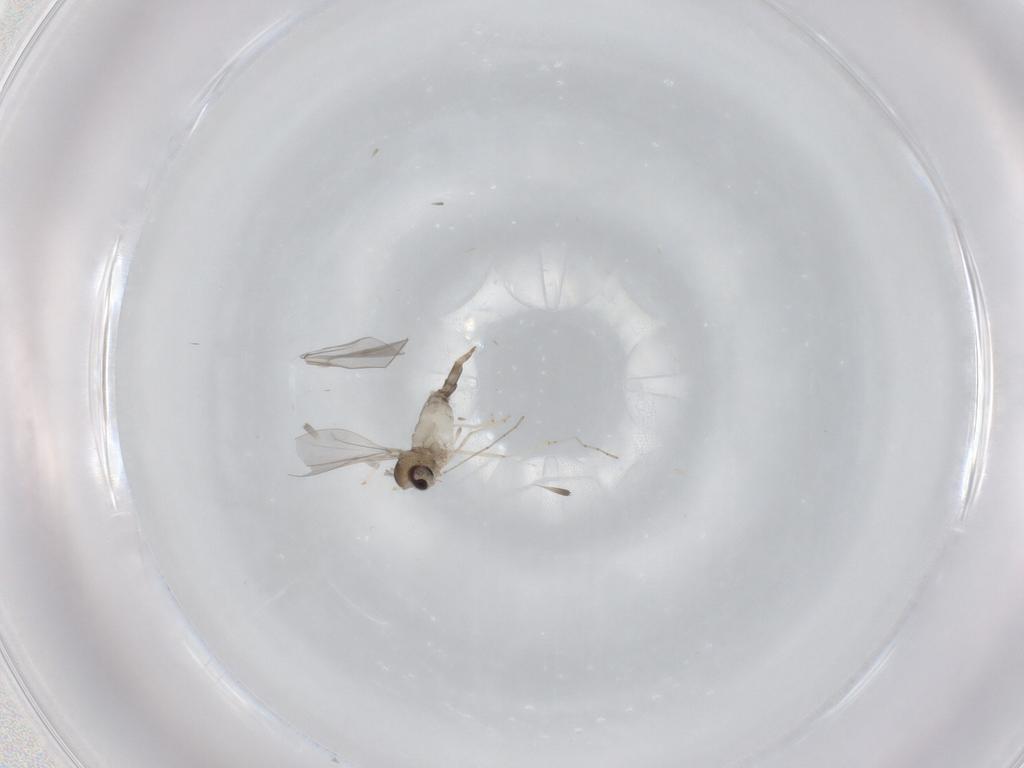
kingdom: Animalia
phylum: Arthropoda
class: Insecta
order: Diptera
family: Cecidomyiidae
